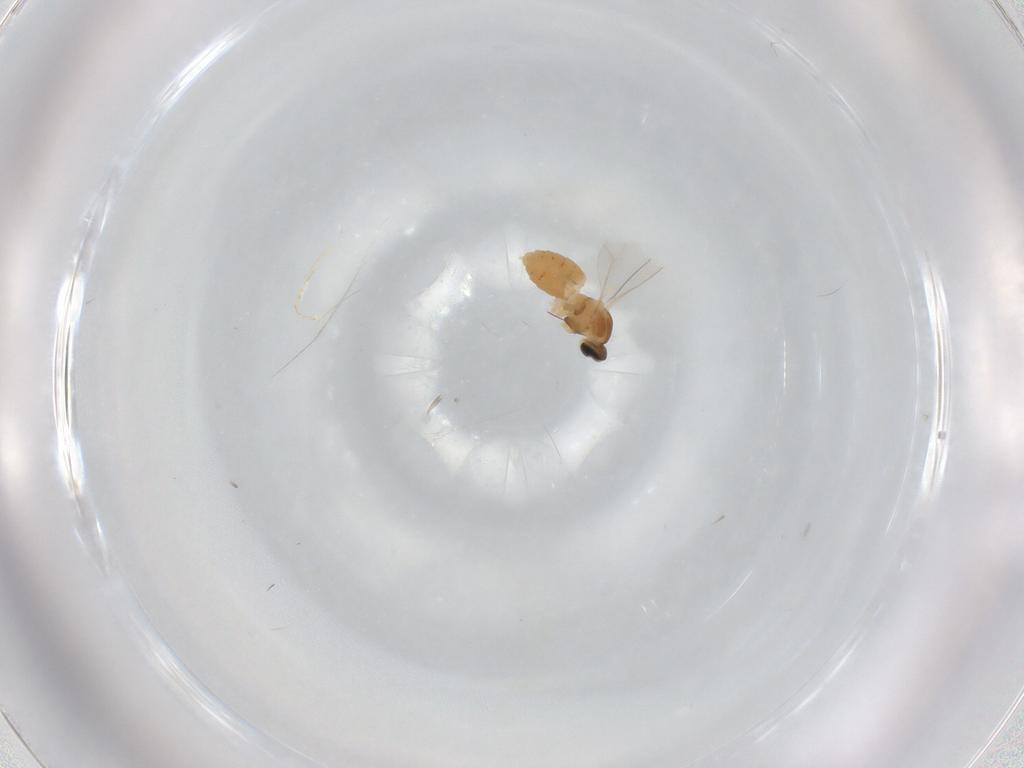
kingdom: Animalia
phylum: Arthropoda
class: Insecta
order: Diptera
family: Cecidomyiidae
